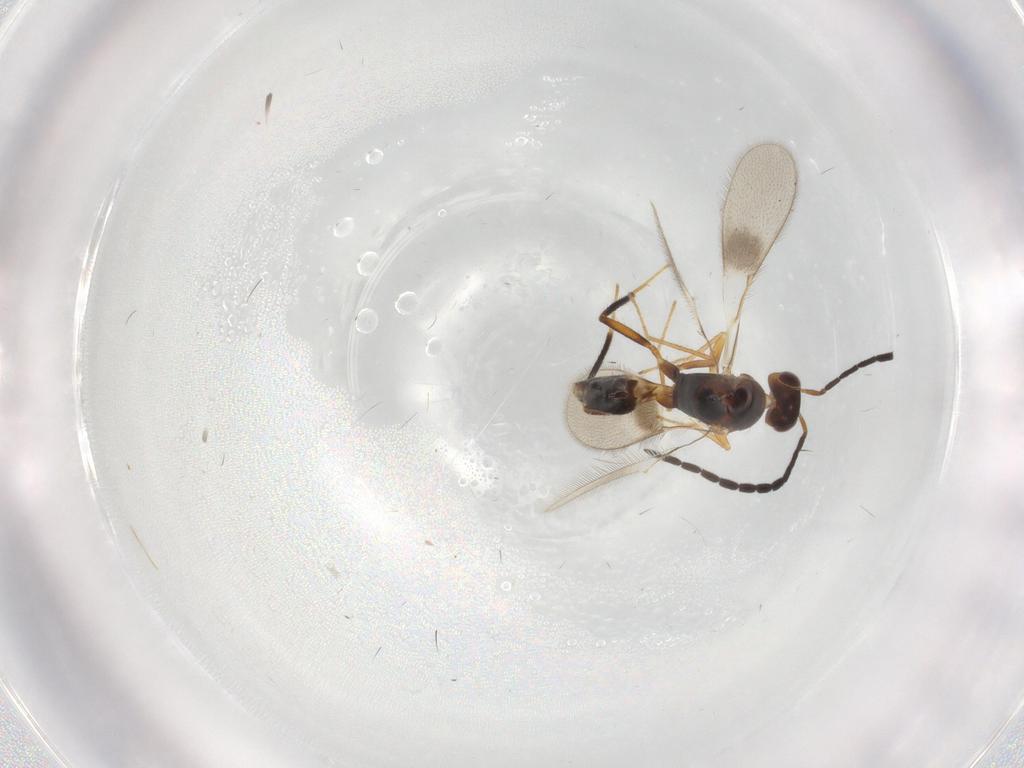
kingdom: Animalia
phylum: Arthropoda
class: Insecta
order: Hymenoptera
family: Mymaridae
